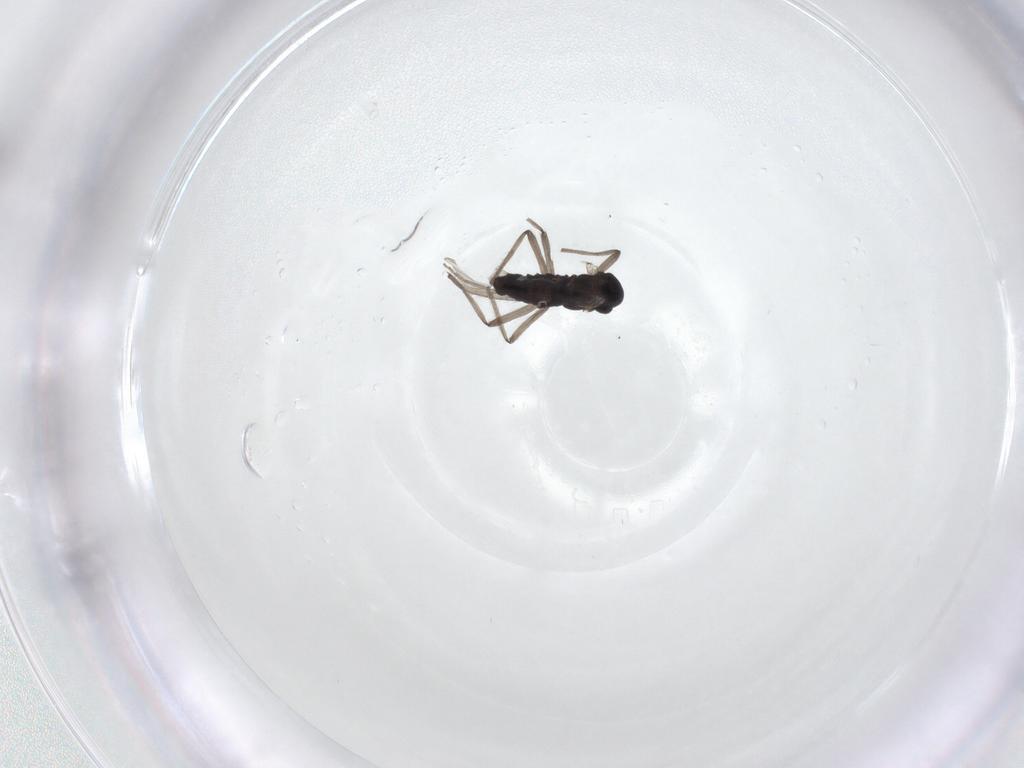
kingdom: Animalia
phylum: Arthropoda
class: Insecta
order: Diptera
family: Chironomidae
